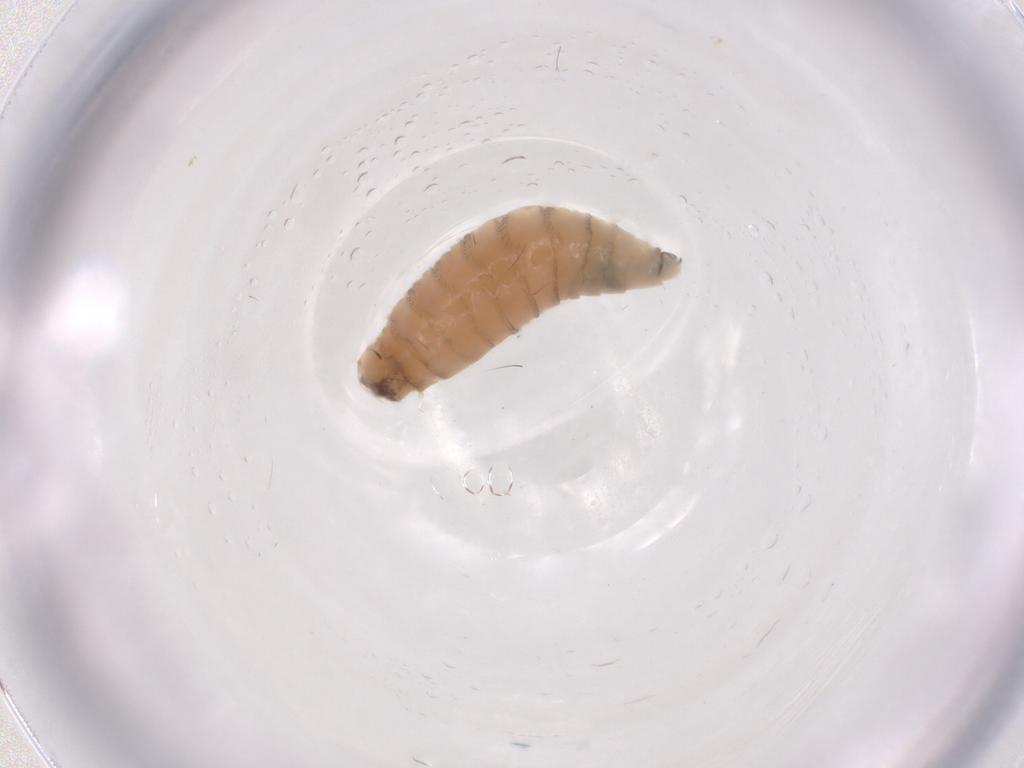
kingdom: Animalia
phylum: Arthropoda
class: Insecta
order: Diptera
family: Sarcophagidae
